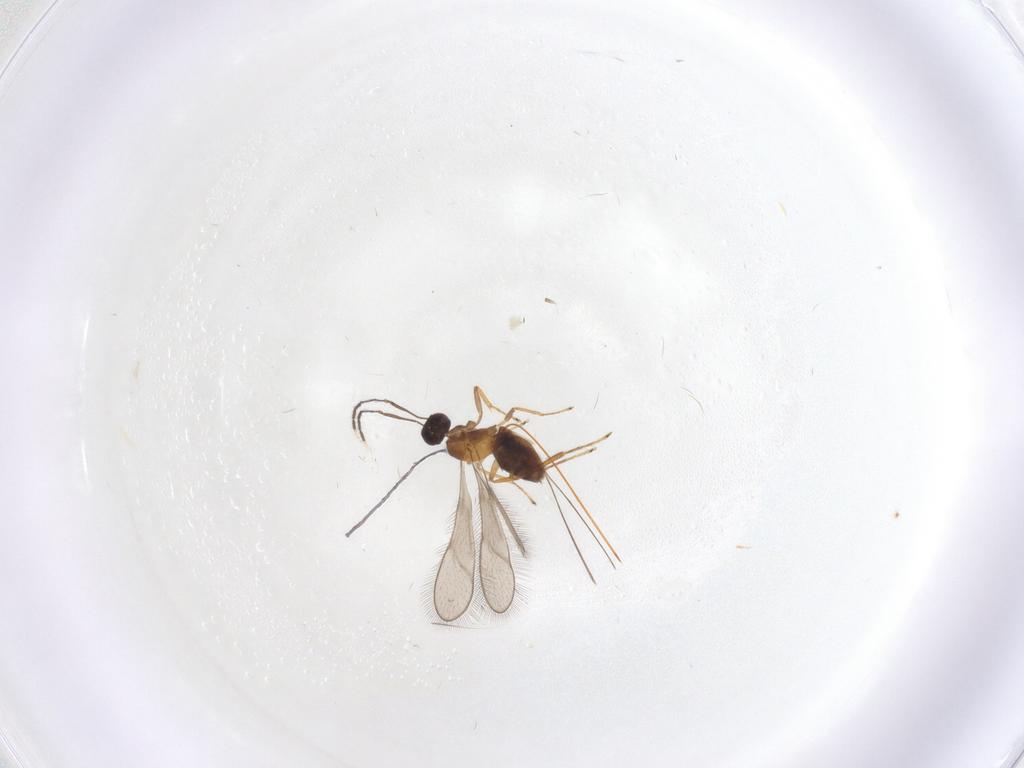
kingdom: Animalia
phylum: Arthropoda
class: Insecta
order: Hymenoptera
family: Mymaridae
